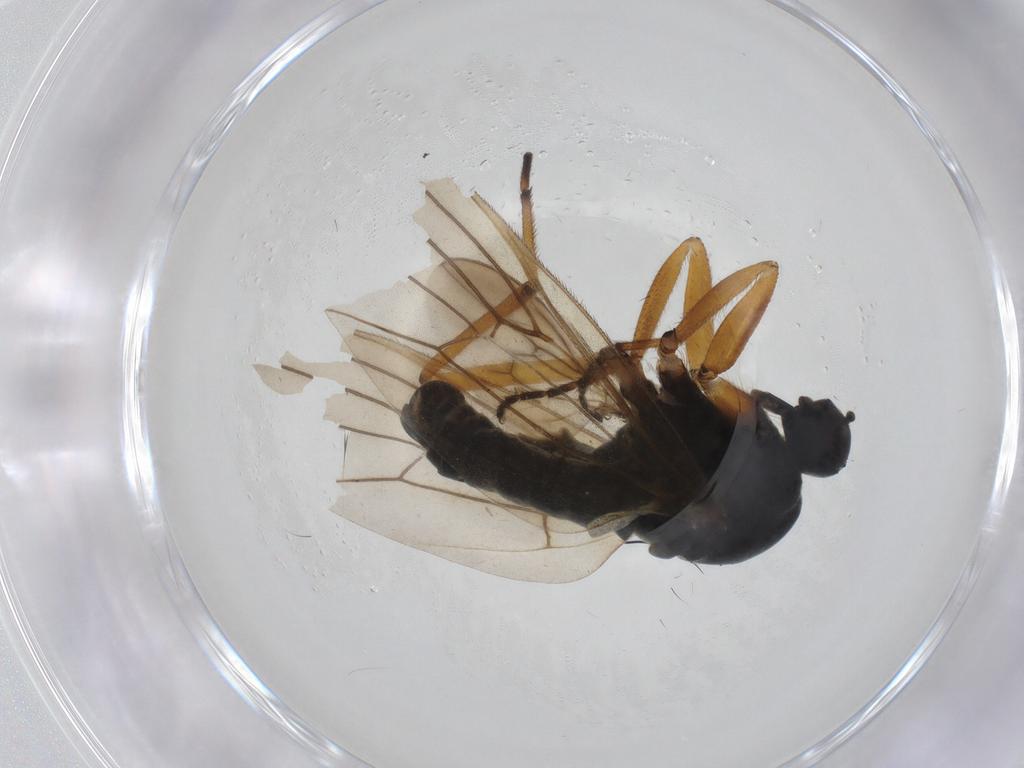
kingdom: Animalia
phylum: Arthropoda
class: Insecta
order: Diptera
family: Hybotidae
